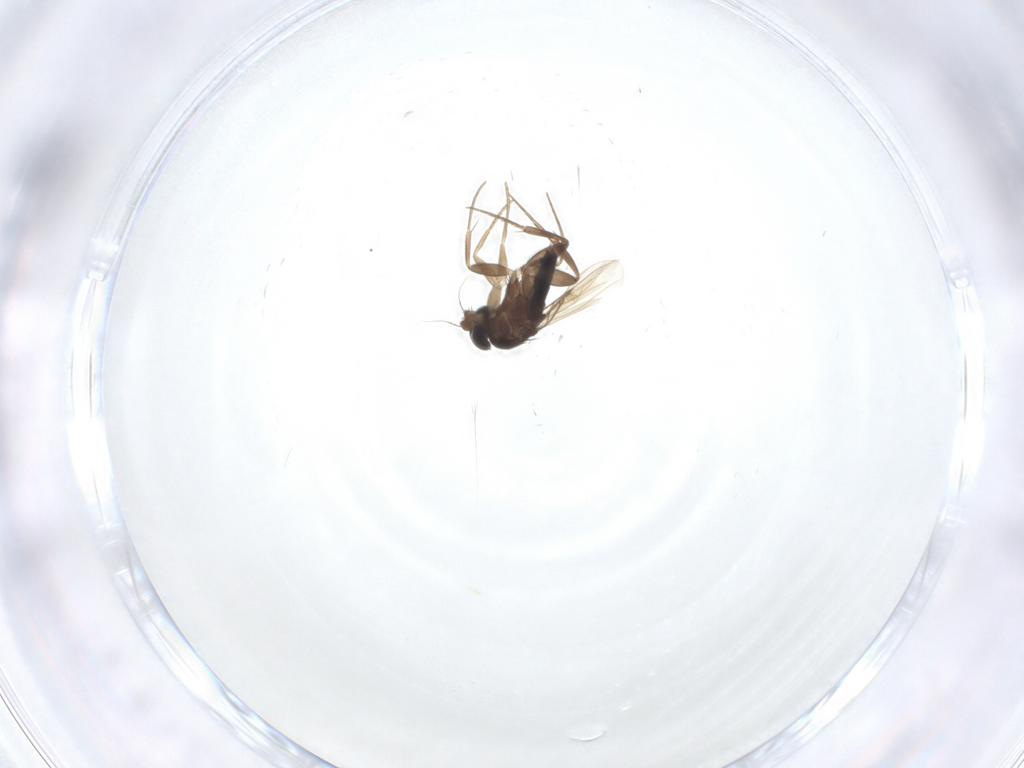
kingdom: Animalia
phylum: Arthropoda
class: Insecta
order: Diptera
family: Phoridae
